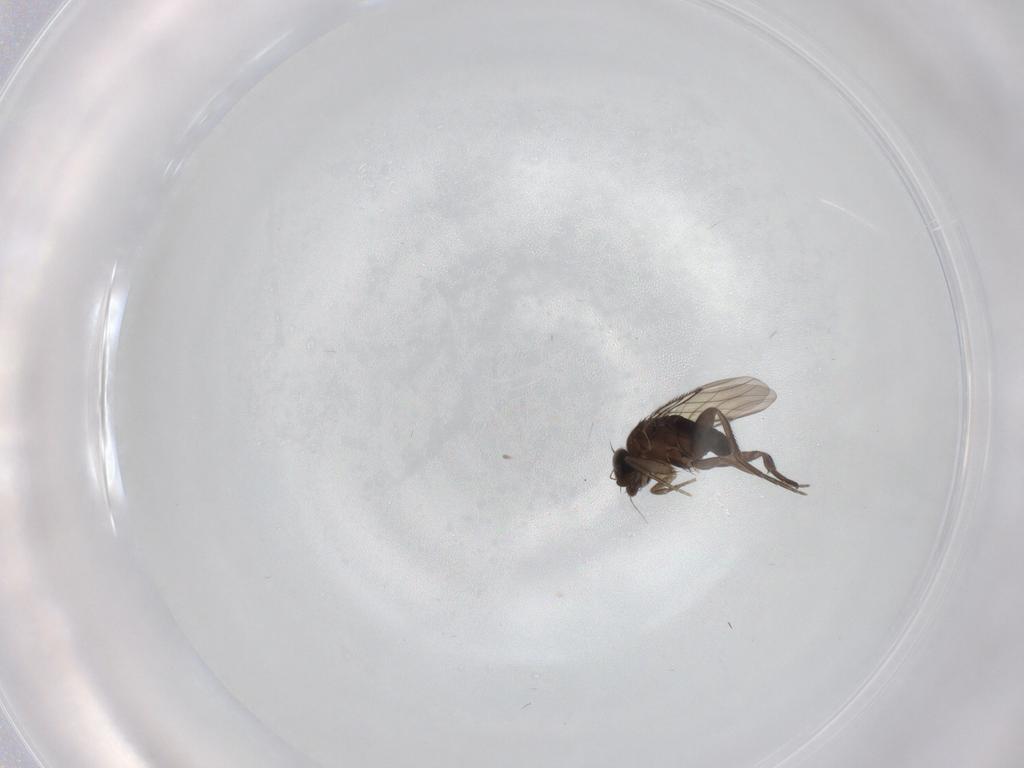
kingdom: Animalia
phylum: Arthropoda
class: Insecta
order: Diptera
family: Phoridae
